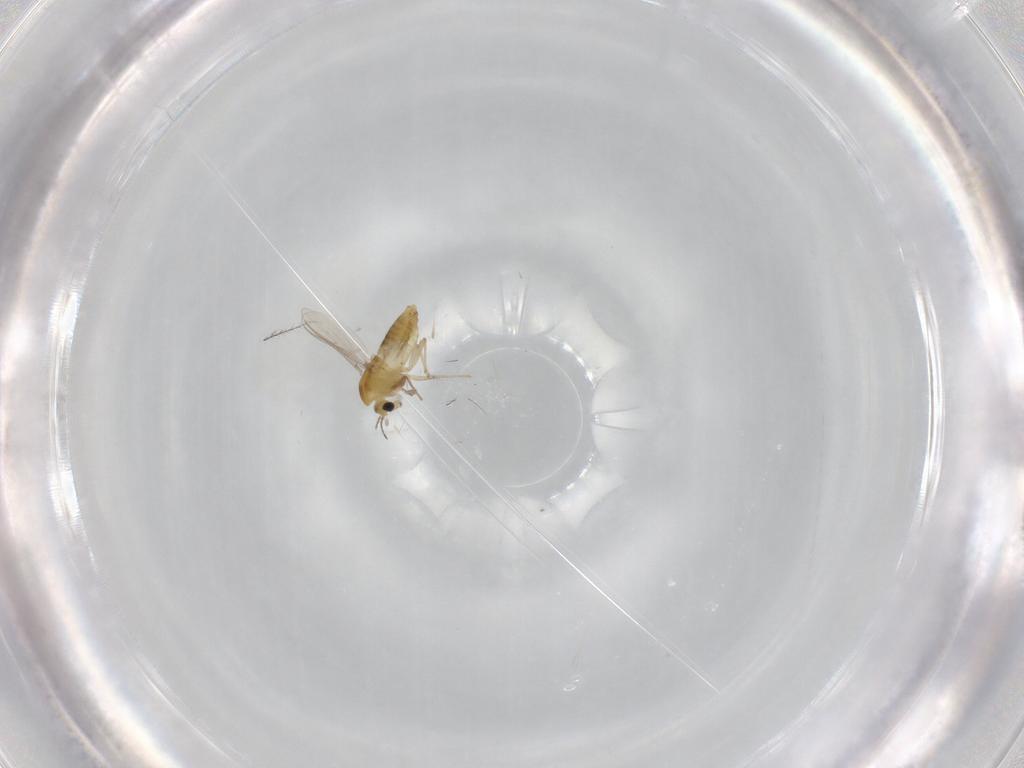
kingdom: Animalia
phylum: Arthropoda
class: Insecta
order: Diptera
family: Chironomidae
